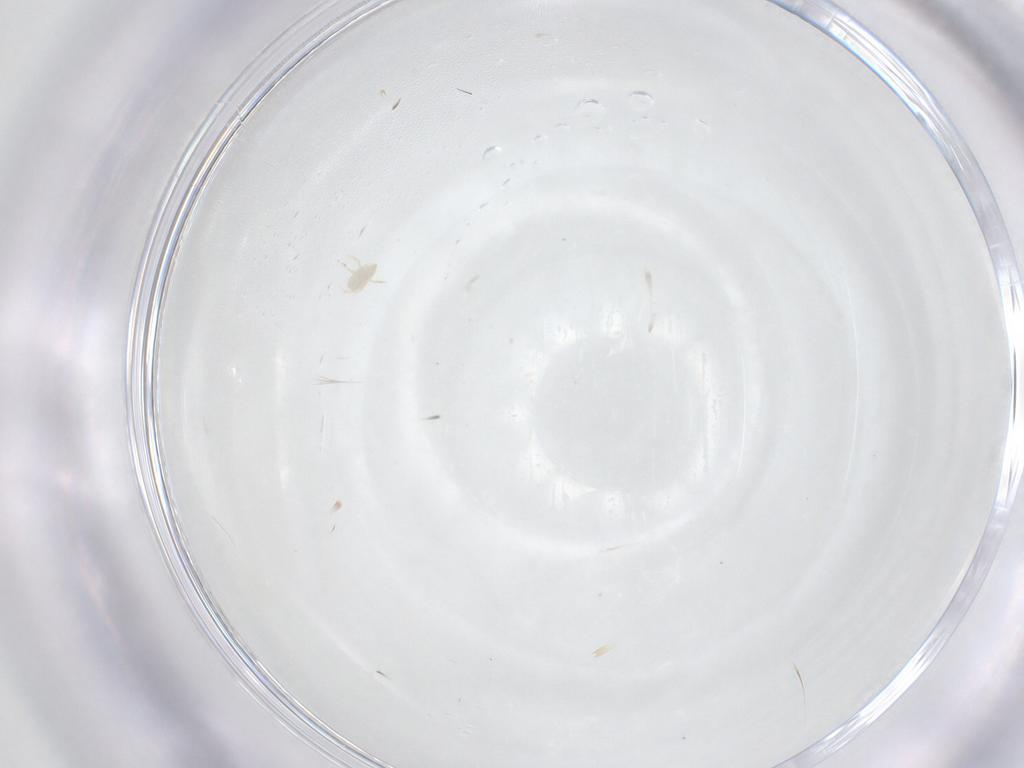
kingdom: Animalia
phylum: Arthropoda
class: Arachnida
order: Trombidiformes
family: Microtrombidiidae
